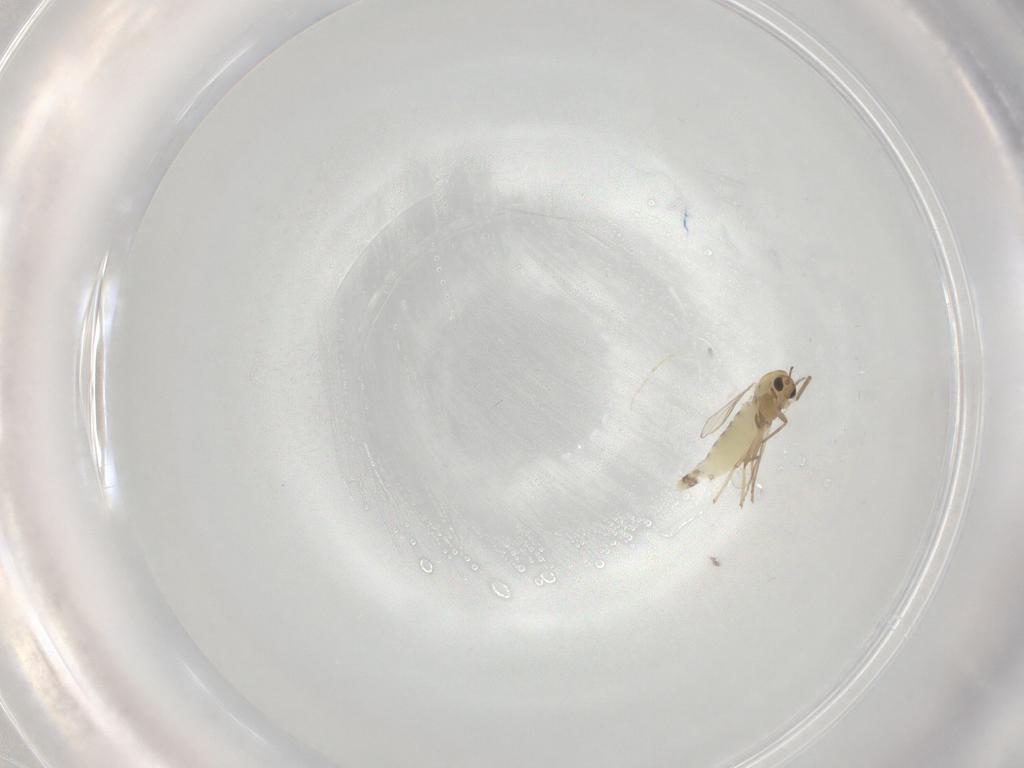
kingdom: Animalia
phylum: Arthropoda
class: Insecta
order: Diptera
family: Chironomidae
